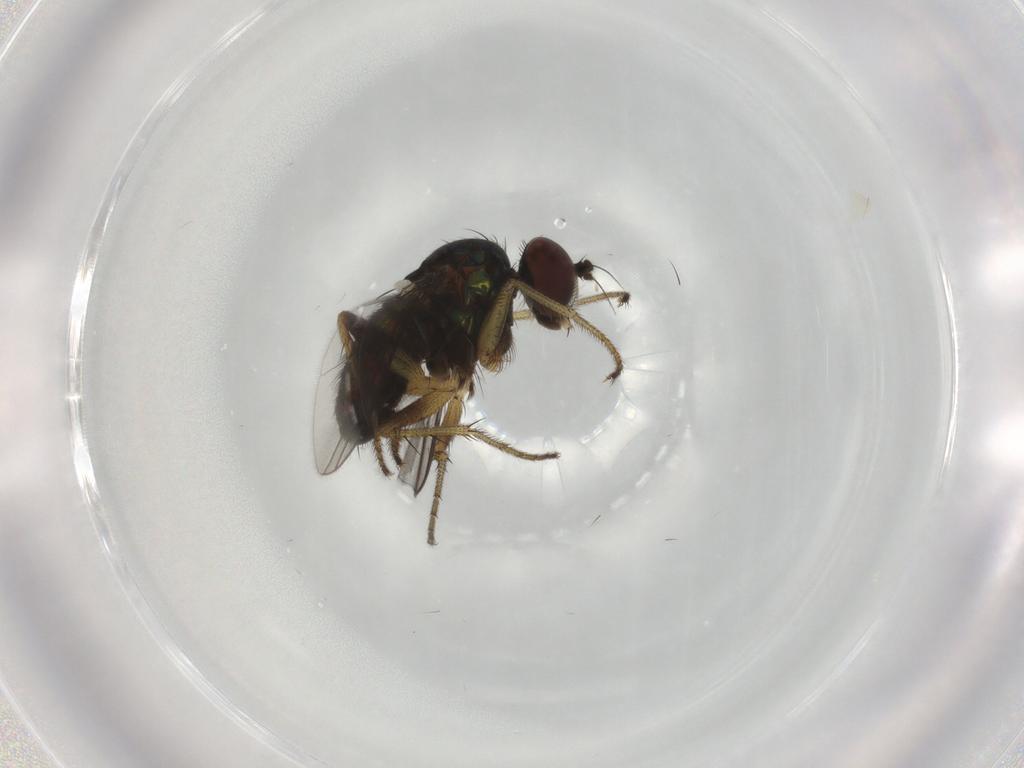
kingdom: Animalia
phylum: Arthropoda
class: Insecta
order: Diptera
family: Dolichopodidae
